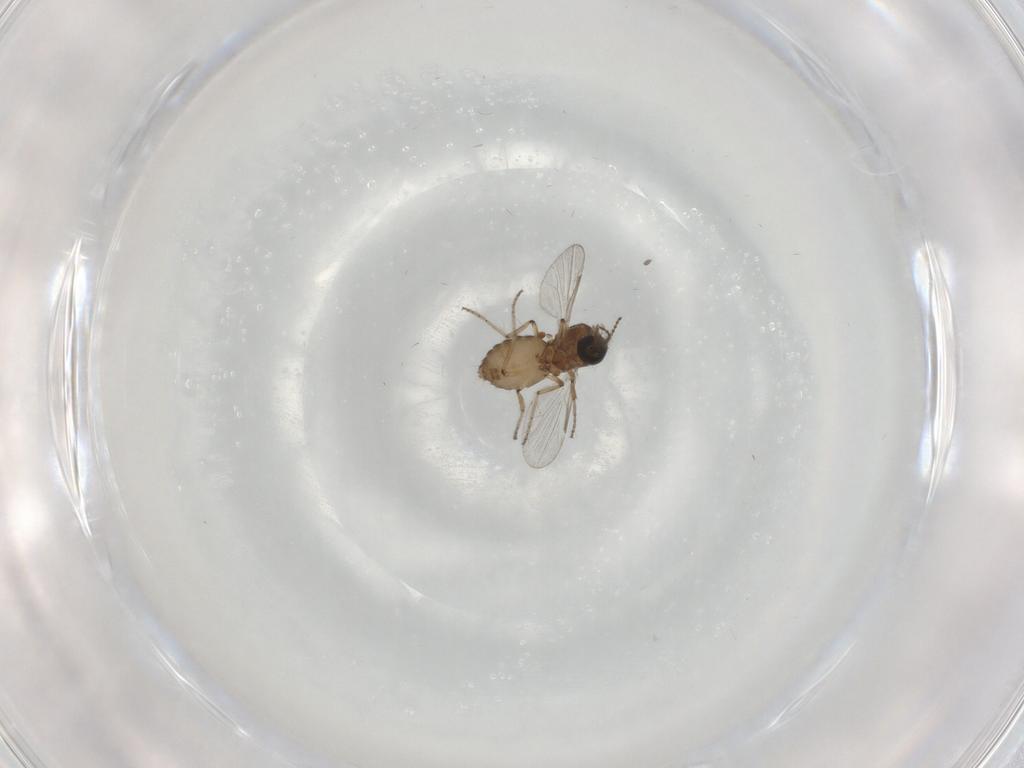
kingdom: Animalia
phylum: Arthropoda
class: Insecta
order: Diptera
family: Ceratopogonidae
